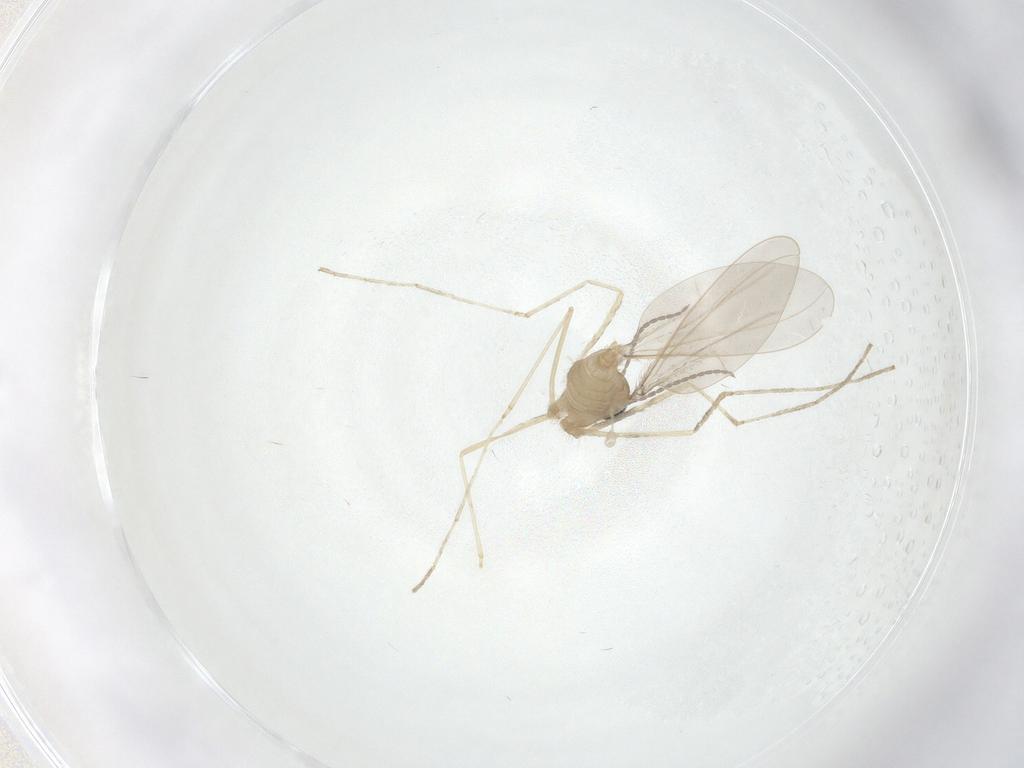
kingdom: Animalia
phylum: Arthropoda
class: Insecta
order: Diptera
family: Cecidomyiidae
